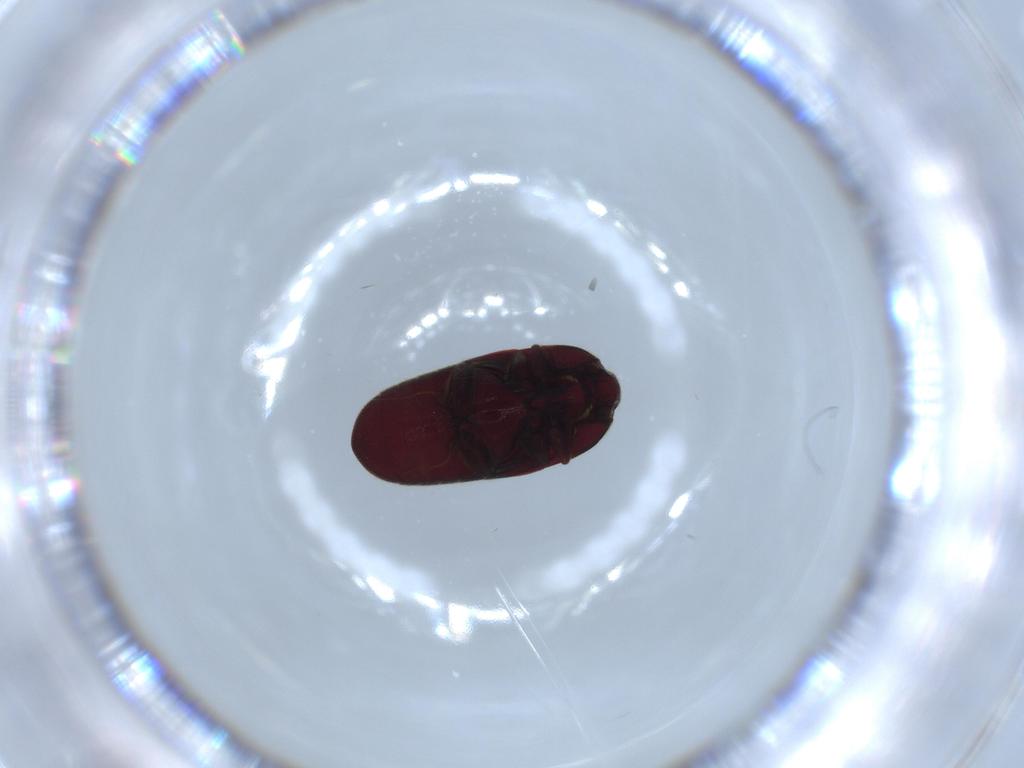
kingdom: Animalia
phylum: Arthropoda
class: Insecta
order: Coleoptera
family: Throscidae
